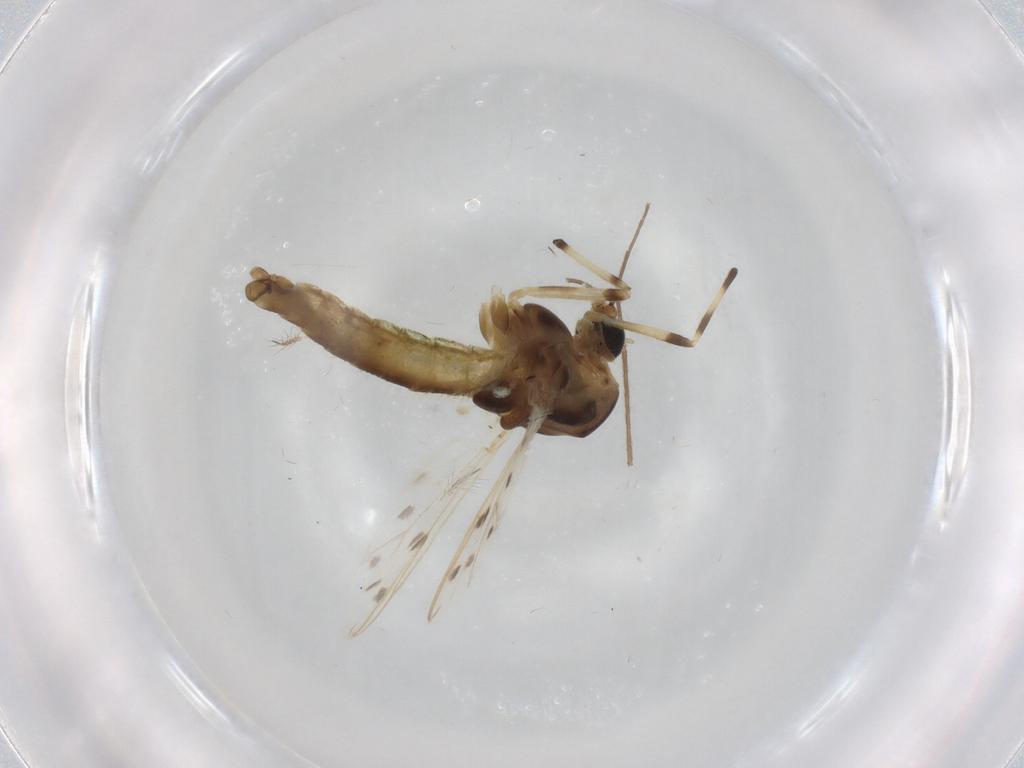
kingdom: Animalia
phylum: Arthropoda
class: Insecta
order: Diptera
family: Chironomidae
